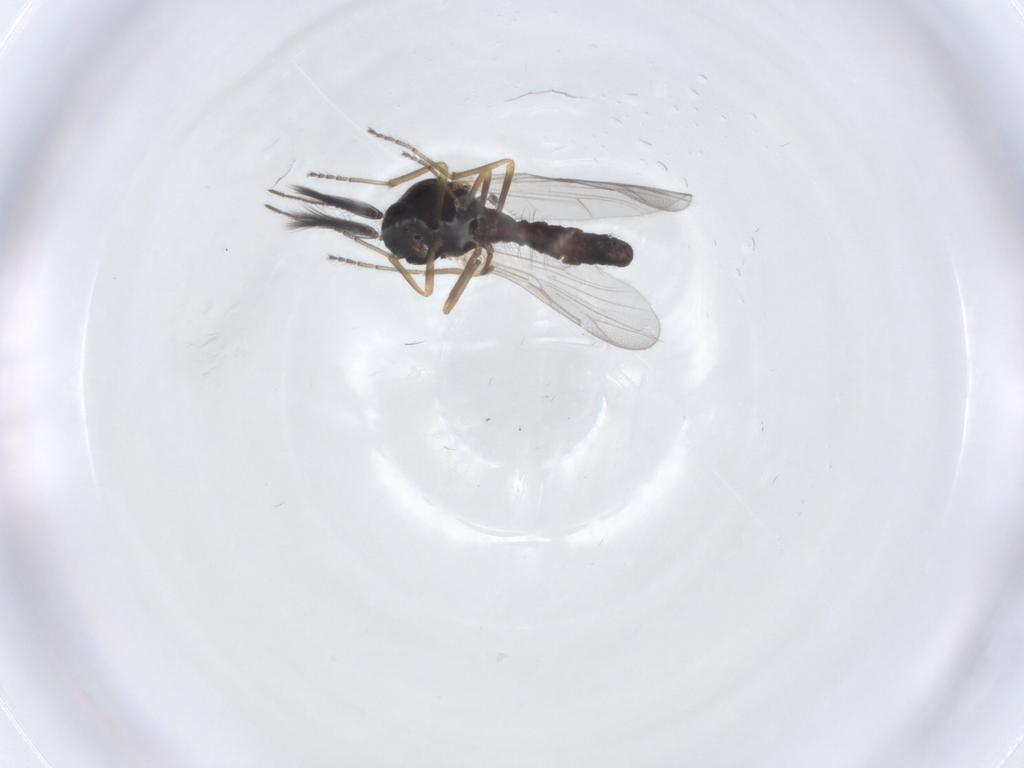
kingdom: Animalia
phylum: Arthropoda
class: Insecta
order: Diptera
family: Ceratopogonidae
